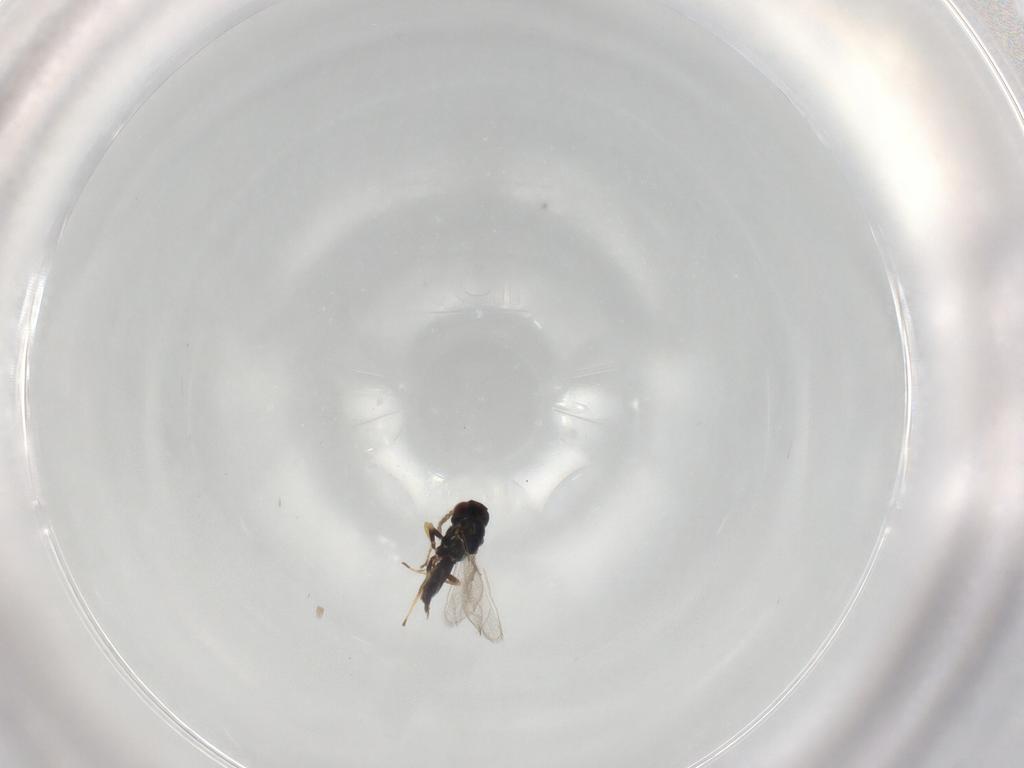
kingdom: Animalia
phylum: Arthropoda
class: Insecta
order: Hymenoptera
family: Eulophidae
